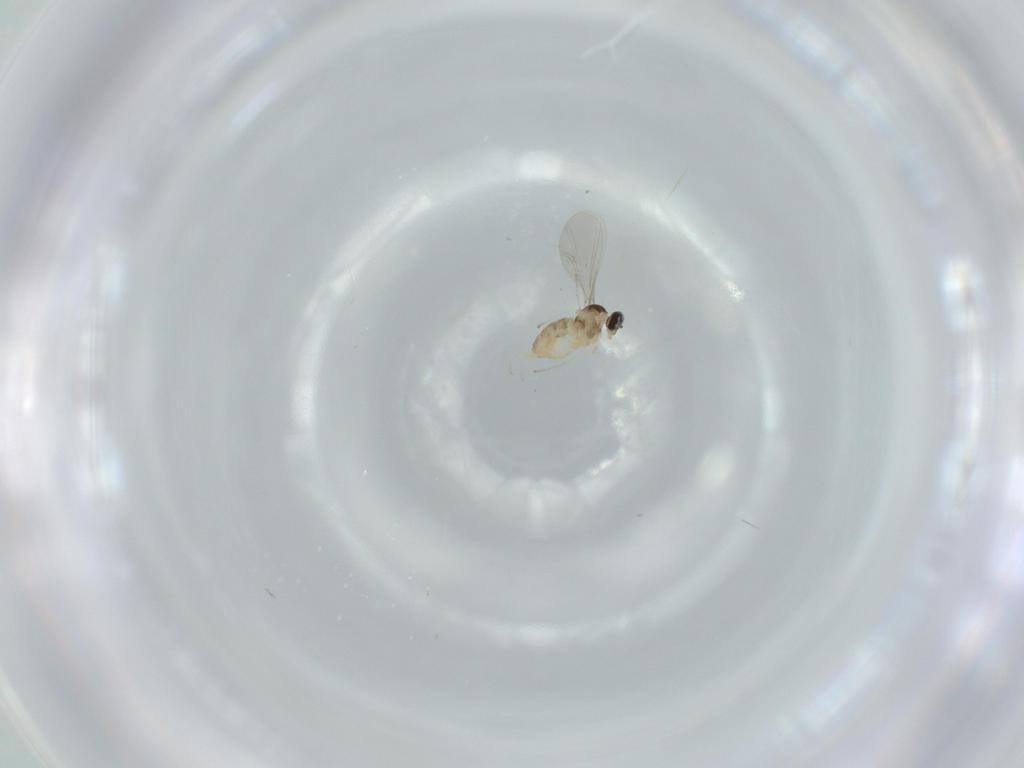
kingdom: Animalia
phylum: Arthropoda
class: Insecta
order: Diptera
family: Cecidomyiidae
